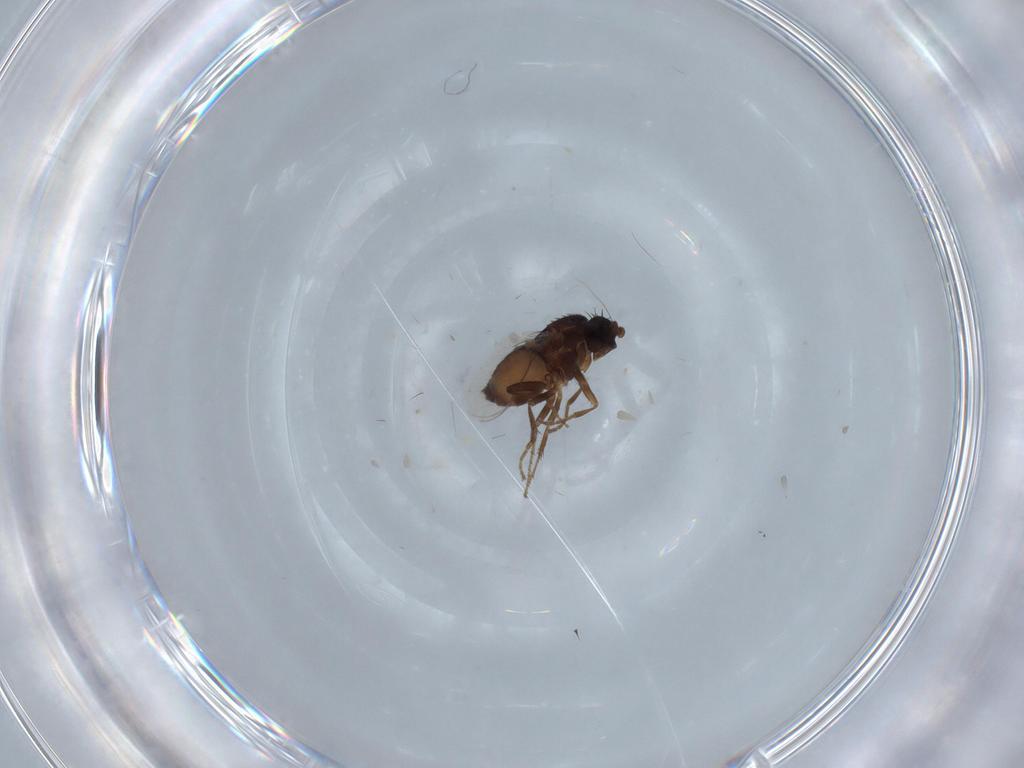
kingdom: Animalia
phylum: Arthropoda
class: Insecta
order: Diptera
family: Sphaeroceridae
